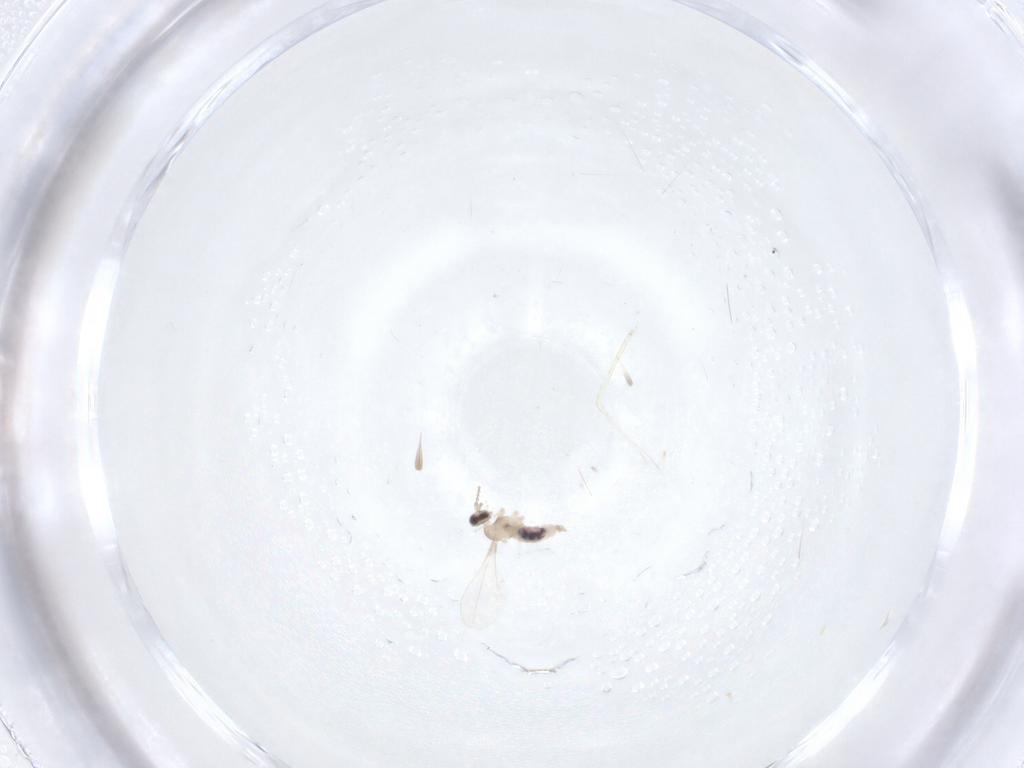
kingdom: Animalia
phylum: Arthropoda
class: Insecta
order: Diptera
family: Cecidomyiidae
